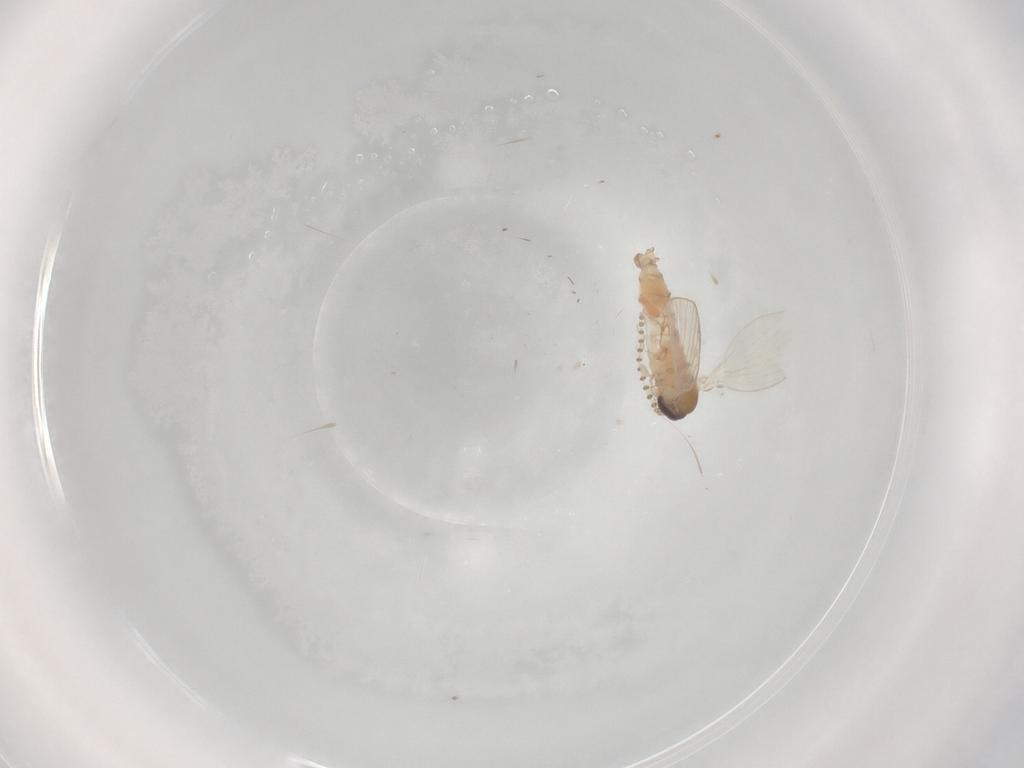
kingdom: Animalia
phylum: Arthropoda
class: Insecta
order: Diptera
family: Psychodidae
